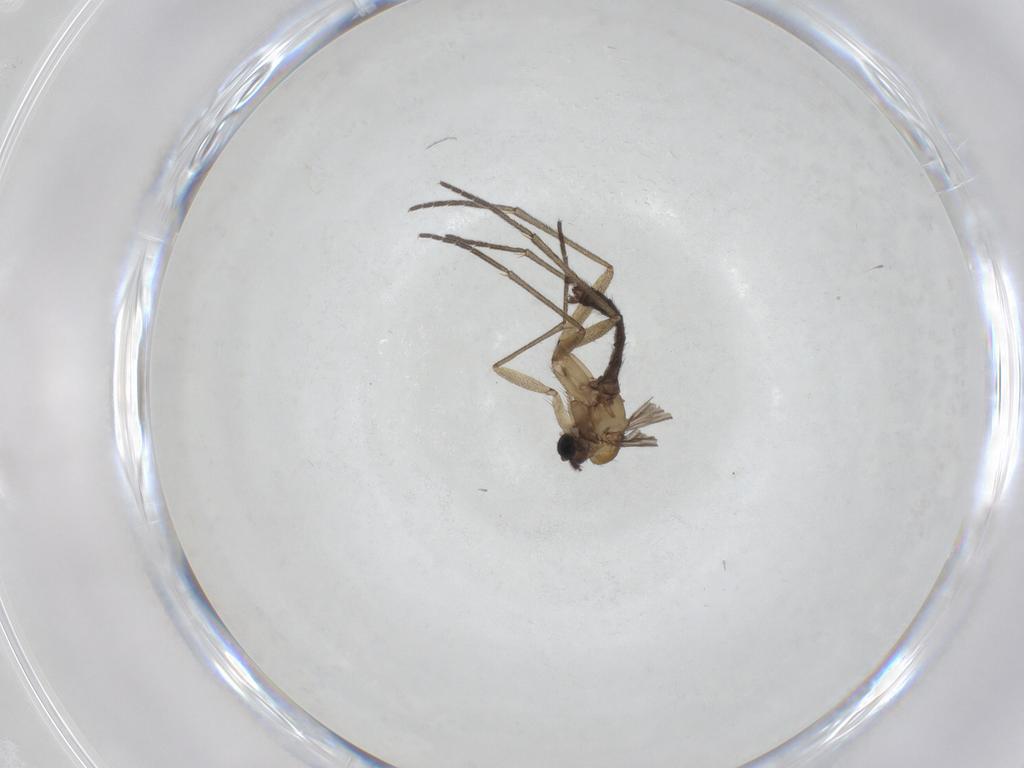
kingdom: Animalia
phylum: Arthropoda
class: Insecta
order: Diptera
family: Sciaridae
